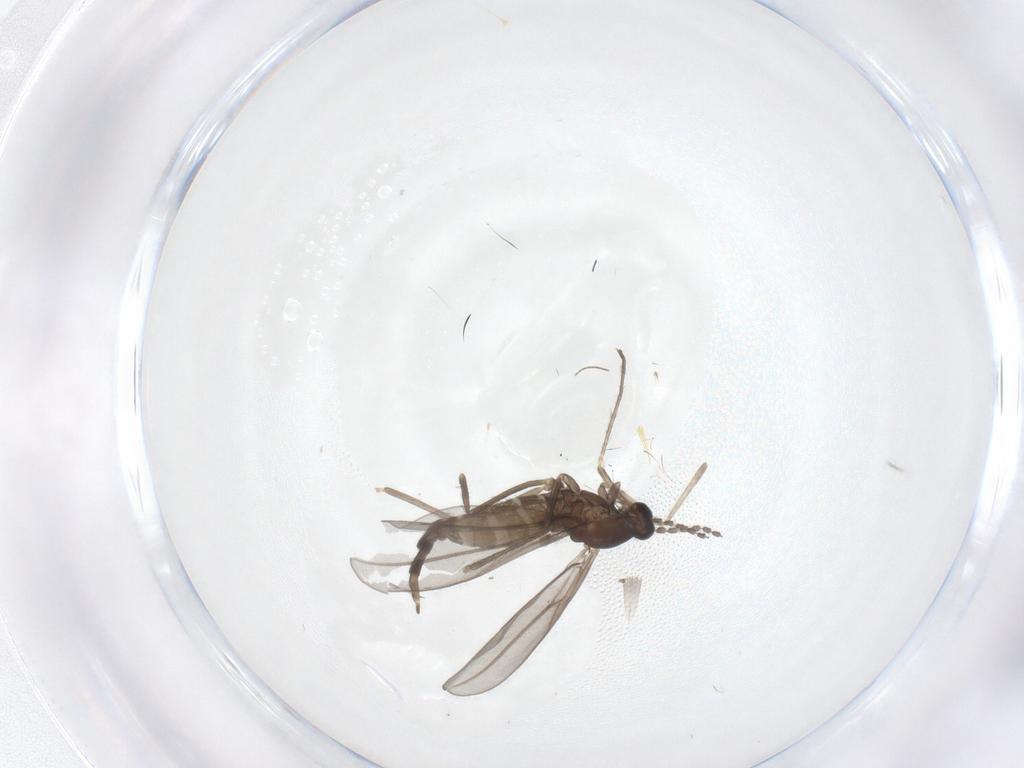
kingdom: Animalia
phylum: Arthropoda
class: Insecta
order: Diptera
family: Cecidomyiidae
